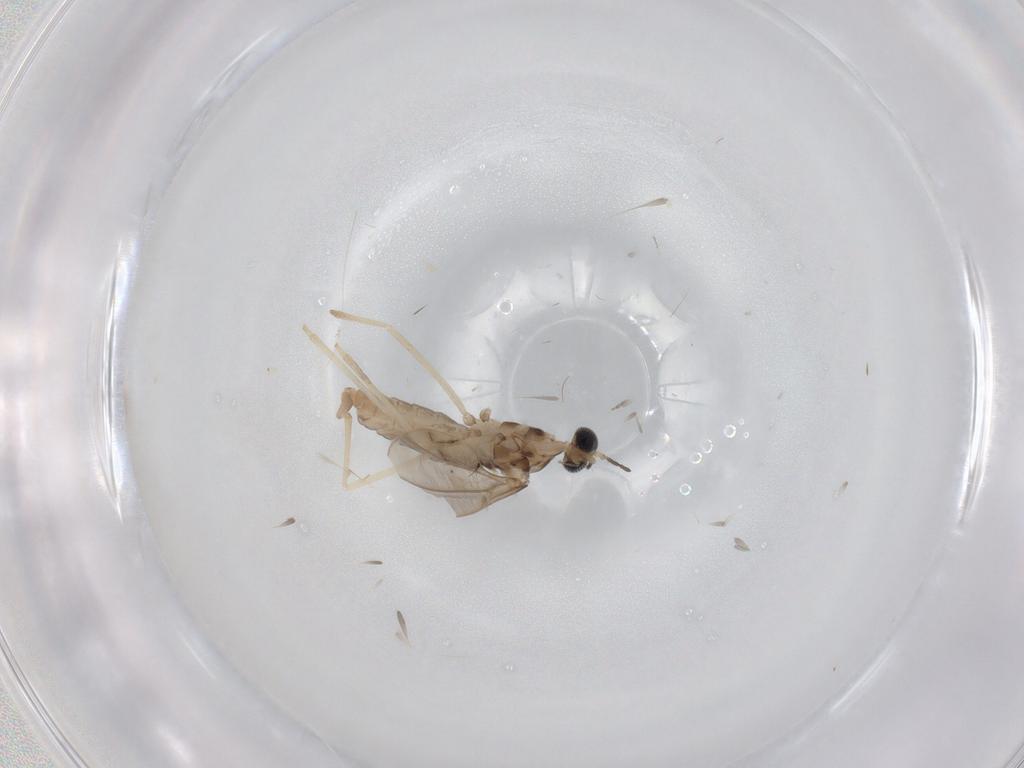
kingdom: Animalia
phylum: Arthropoda
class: Insecta
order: Diptera
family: Cecidomyiidae
